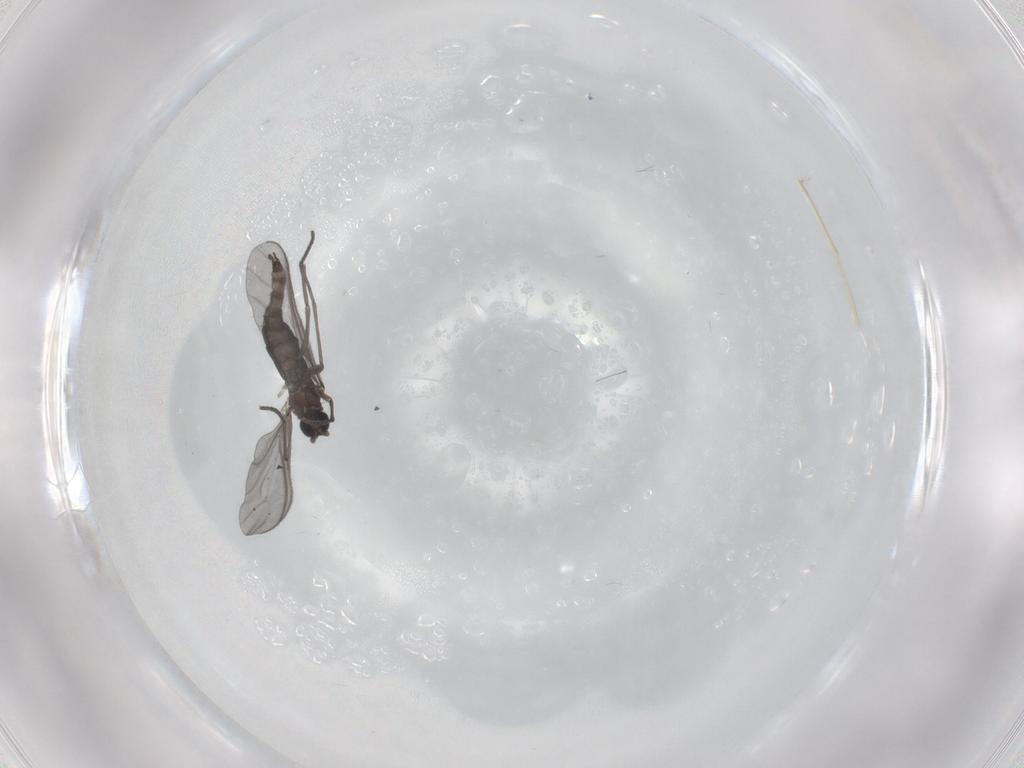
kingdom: Animalia
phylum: Arthropoda
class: Insecta
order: Diptera
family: Sciaridae
